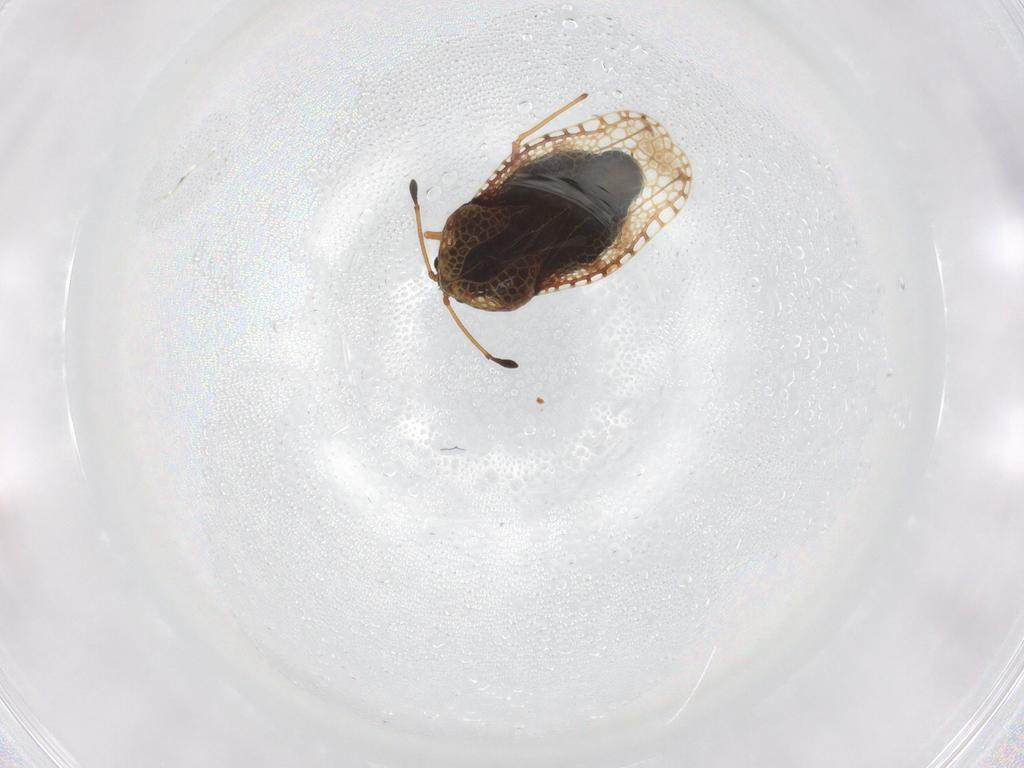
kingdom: Animalia
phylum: Arthropoda
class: Insecta
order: Hemiptera
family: Tingidae
